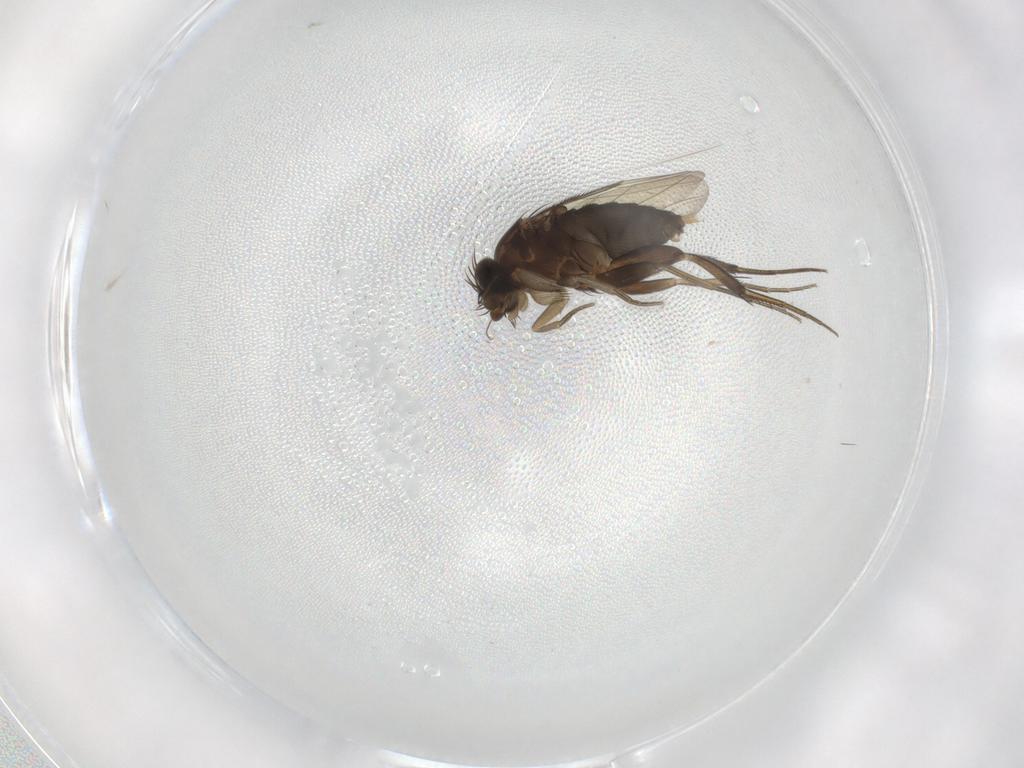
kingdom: Animalia
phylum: Arthropoda
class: Insecta
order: Diptera
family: Phoridae
